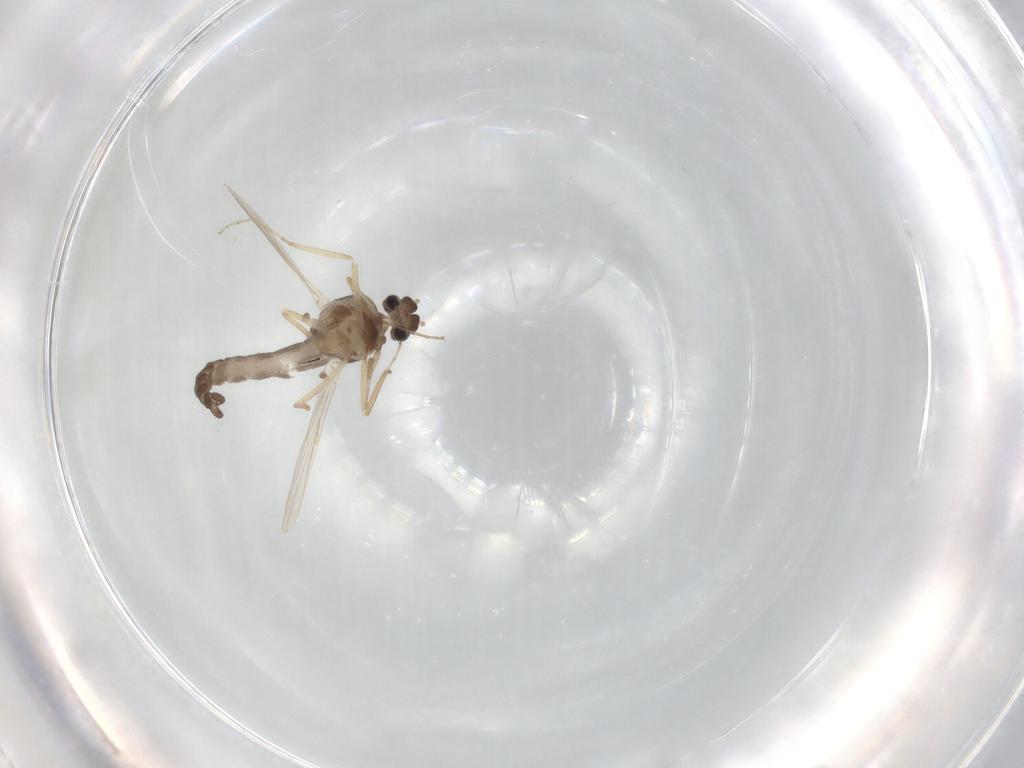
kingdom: Animalia
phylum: Arthropoda
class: Insecta
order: Diptera
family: Ceratopogonidae
